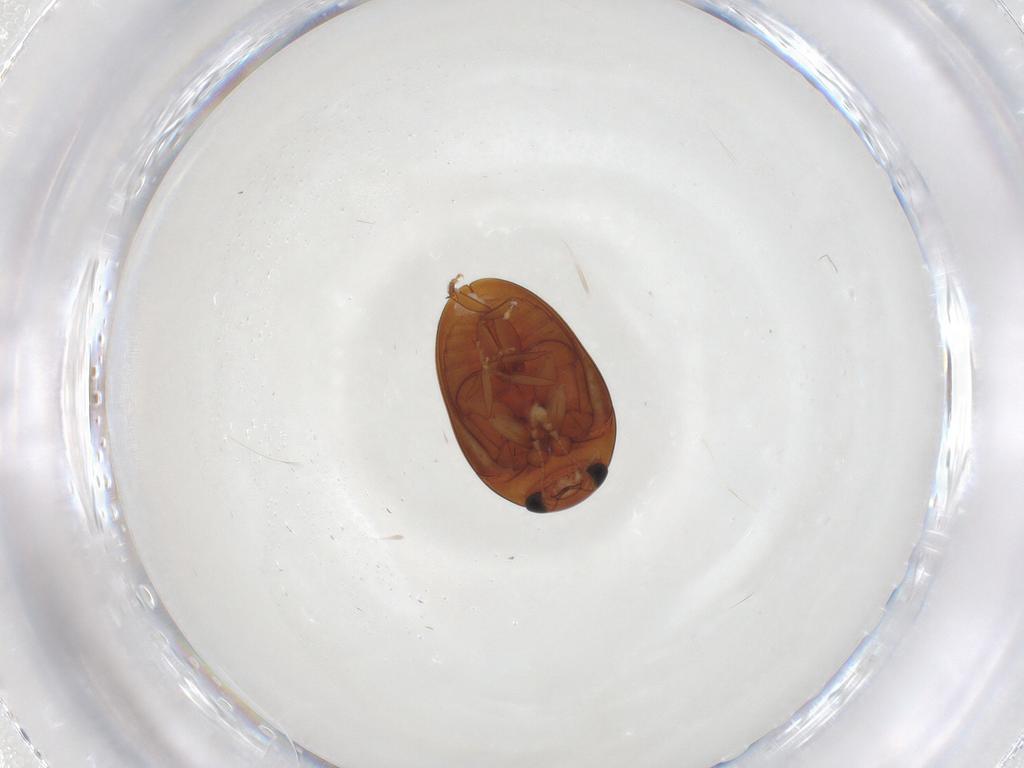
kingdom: Animalia
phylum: Arthropoda
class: Insecta
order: Coleoptera
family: Phalacridae
